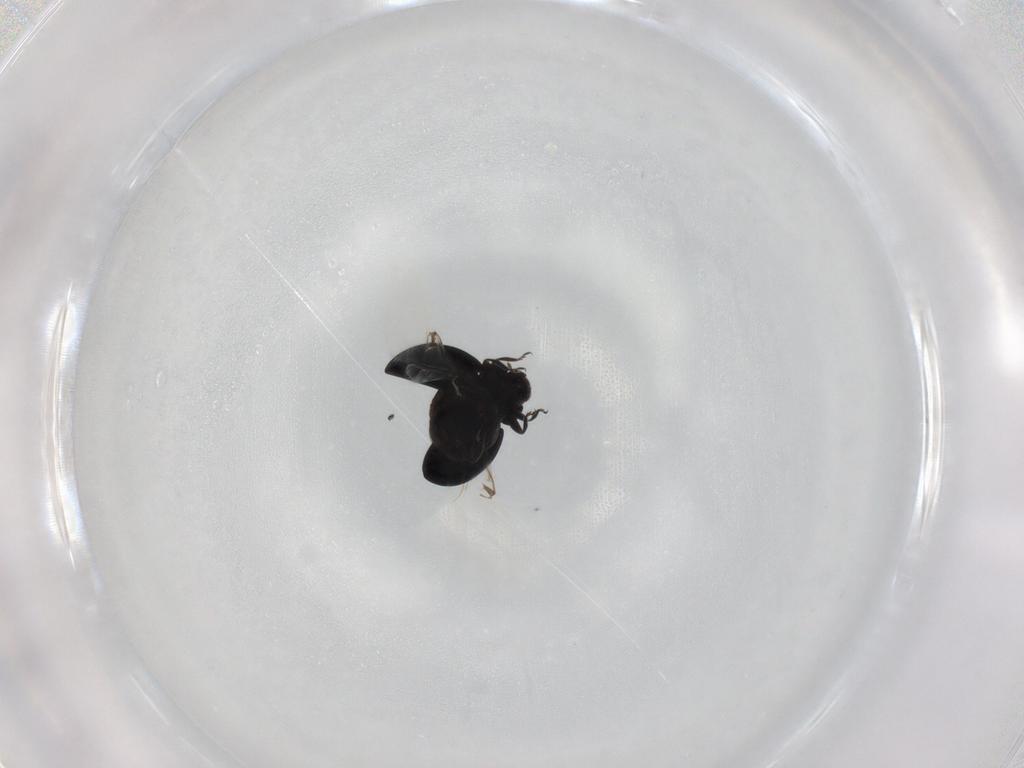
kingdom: Animalia
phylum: Arthropoda
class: Insecta
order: Coleoptera
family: Coccinellidae
